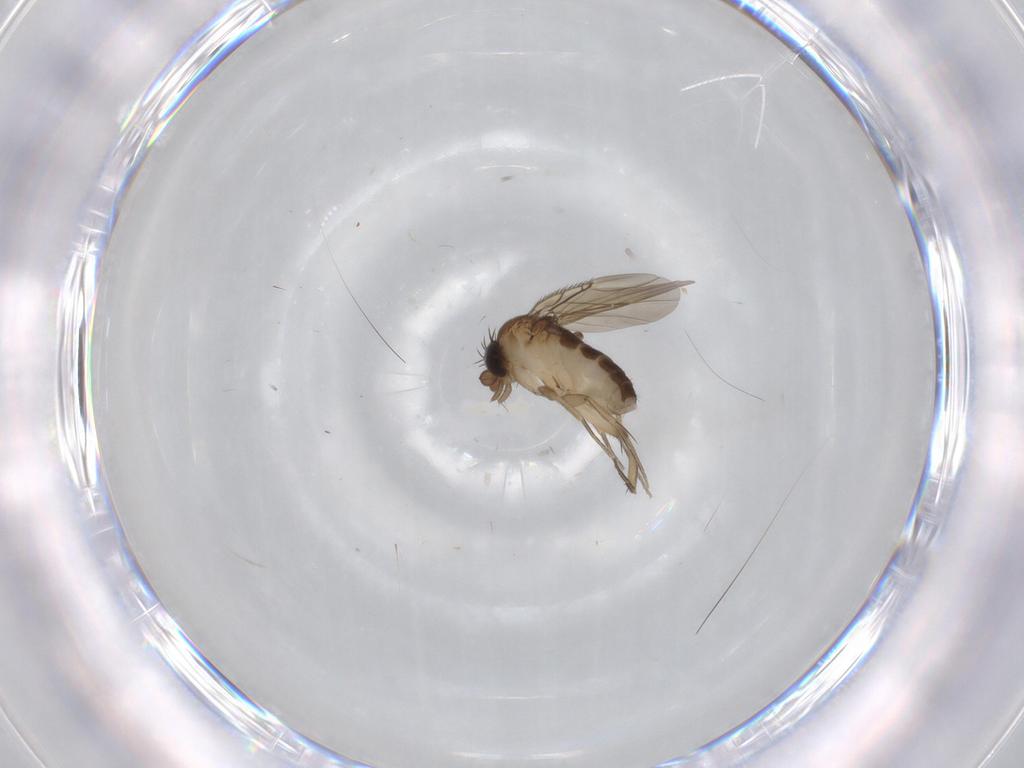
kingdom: Animalia
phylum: Arthropoda
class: Insecta
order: Diptera
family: Phoridae
